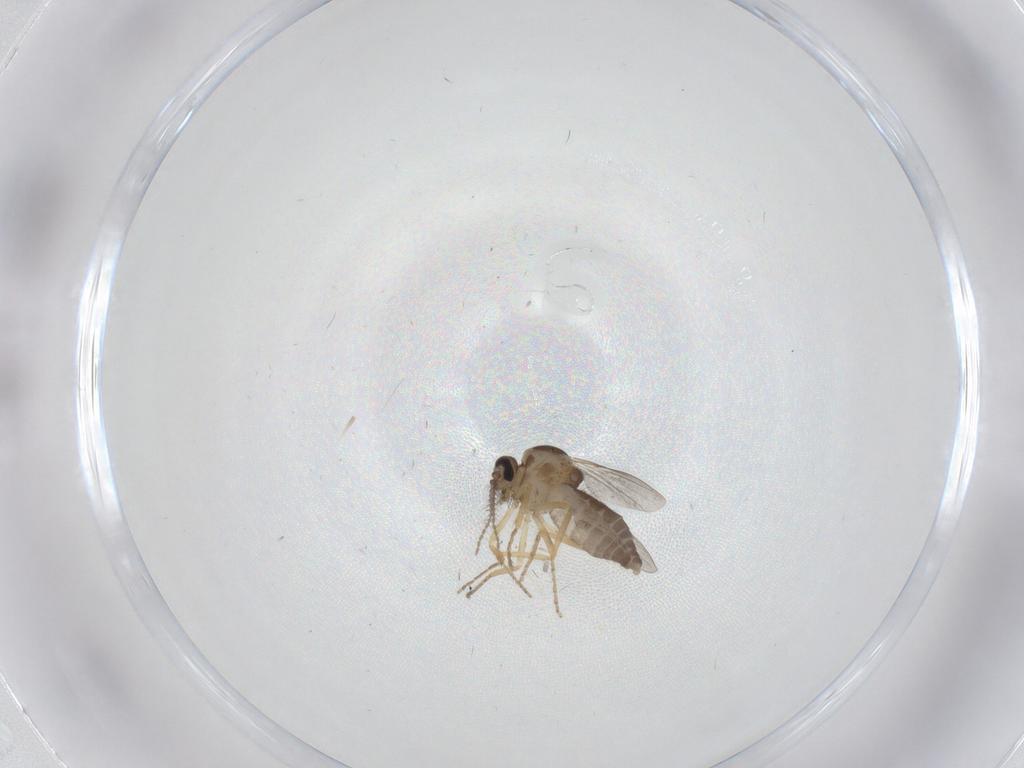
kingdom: Animalia
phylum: Arthropoda
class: Insecta
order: Diptera
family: Ceratopogonidae
